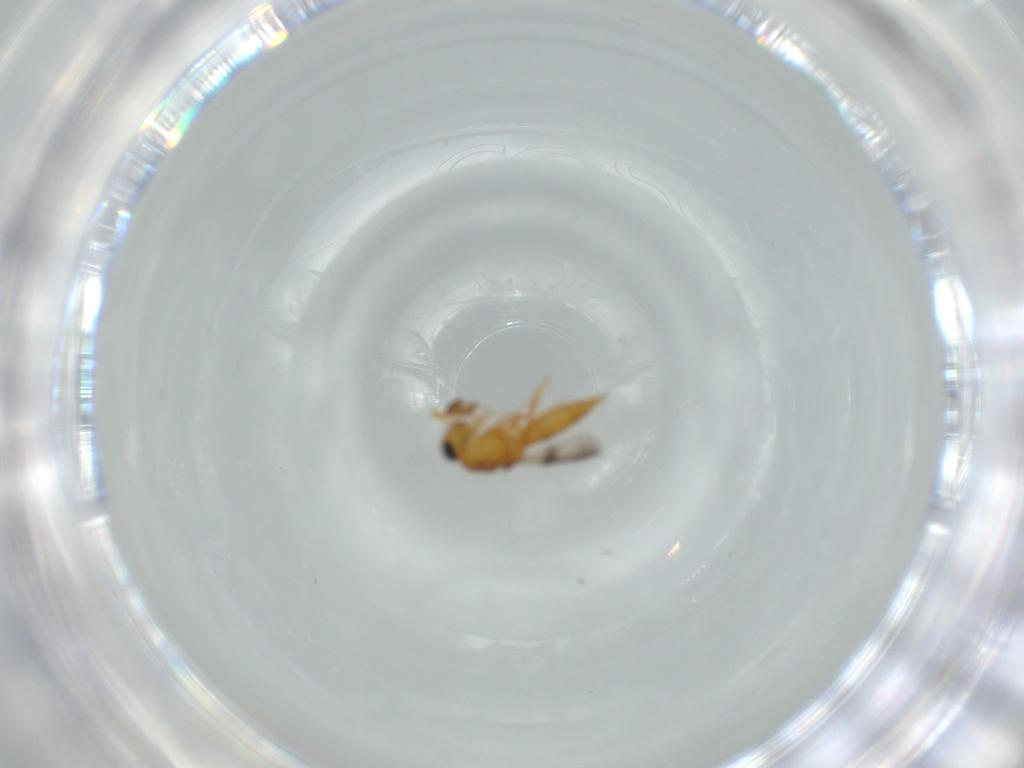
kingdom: Animalia
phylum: Arthropoda
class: Insecta
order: Hymenoptera
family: Scelionidae
